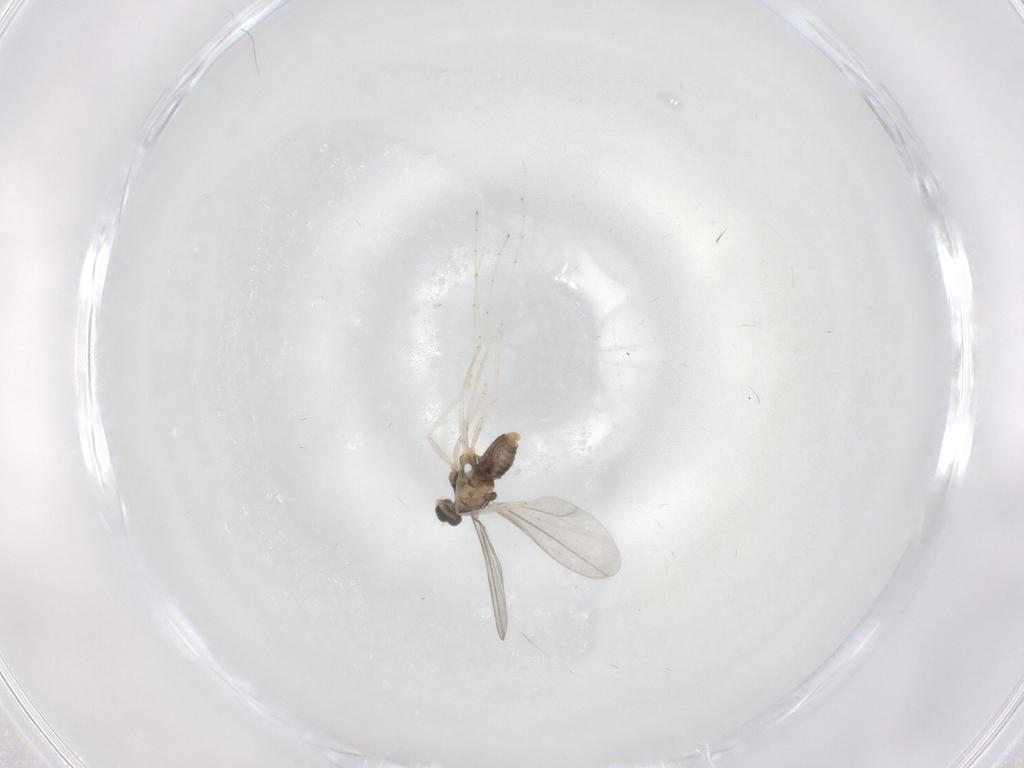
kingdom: Animalia
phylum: Arthropoda
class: Insecta
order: Diptera
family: Cecidomyiidae
